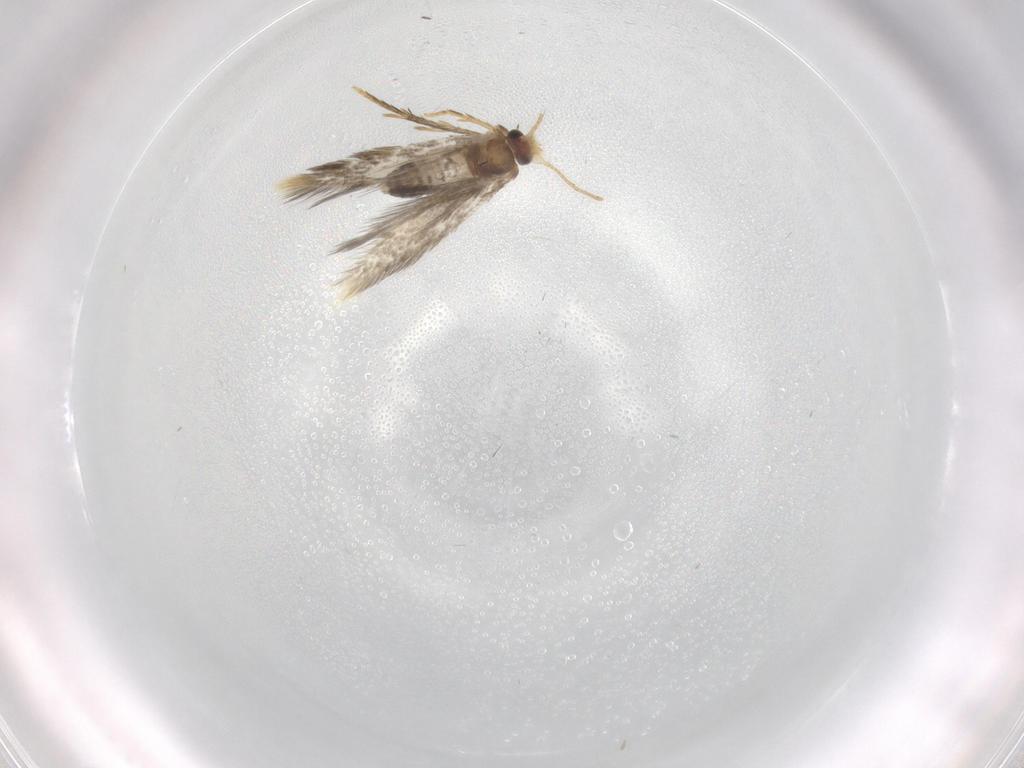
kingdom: Animalia
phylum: Arthropoda
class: Insecta
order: Lepidoptera
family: Copromorphidae
